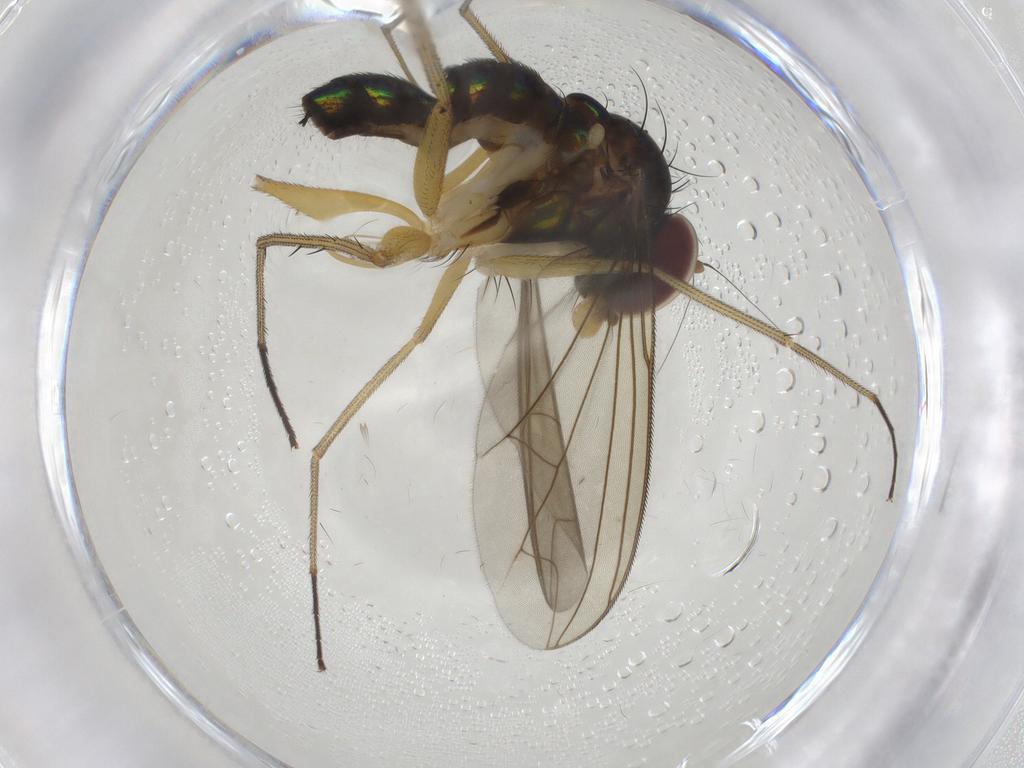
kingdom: Animalia
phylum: Arthropoda
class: Insecta
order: Diptera
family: Dolichopodidae
